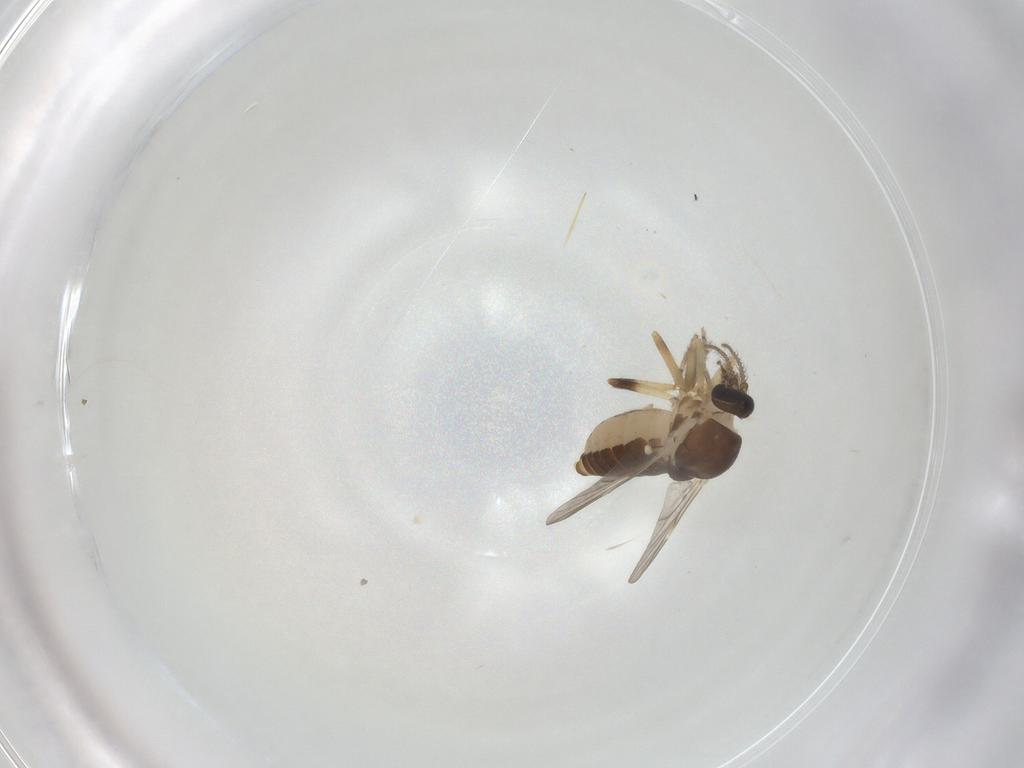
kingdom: Animalia
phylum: Arthropoda
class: Insecta
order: Diptera
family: Ceratopogonidae
